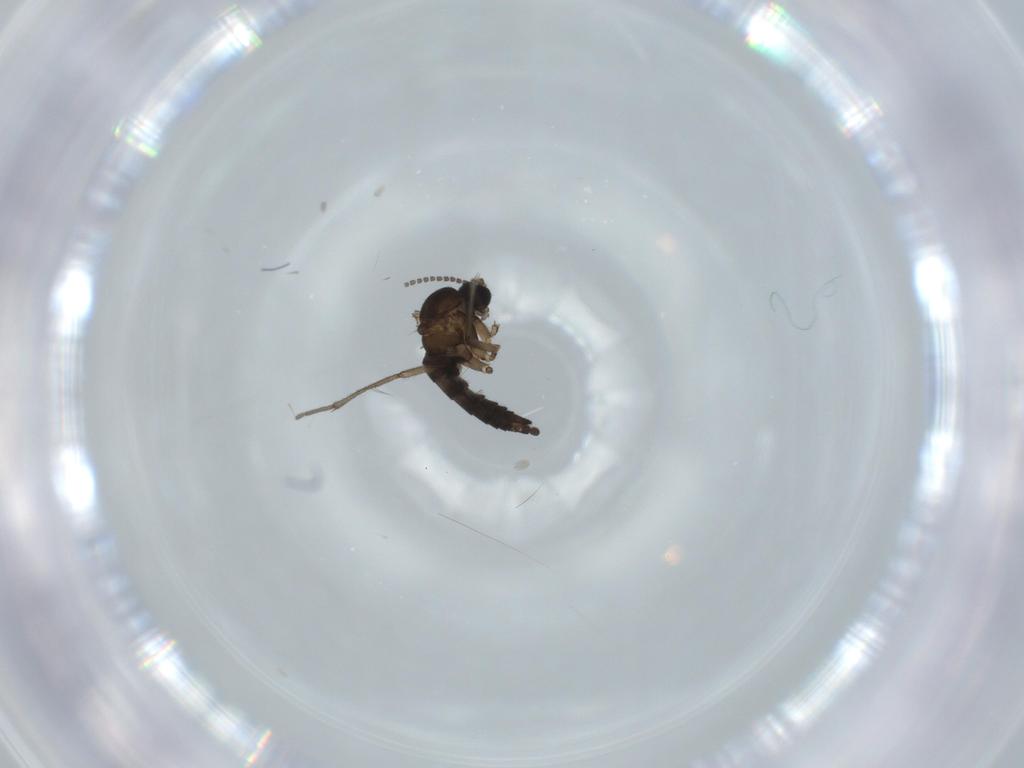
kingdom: Animalia
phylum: Arthropoda
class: Insecta
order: Diptera
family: Sciaridae
